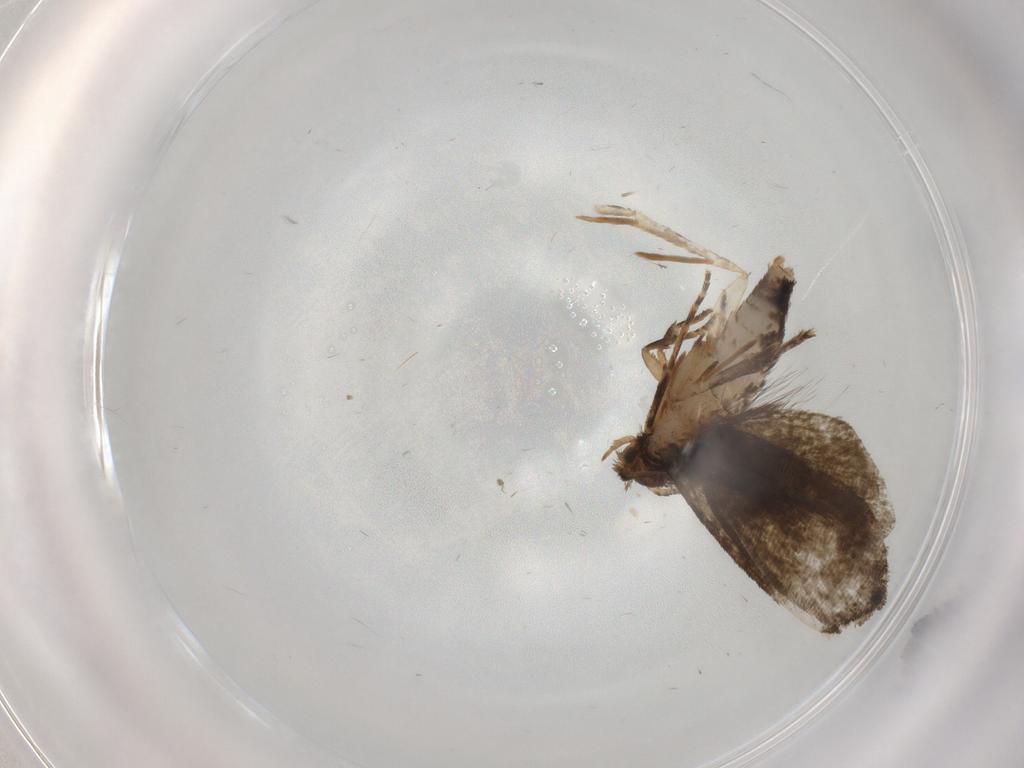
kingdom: Animalia
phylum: Arthropoda
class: Insecta
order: Lepidoptera
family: Tineidae
